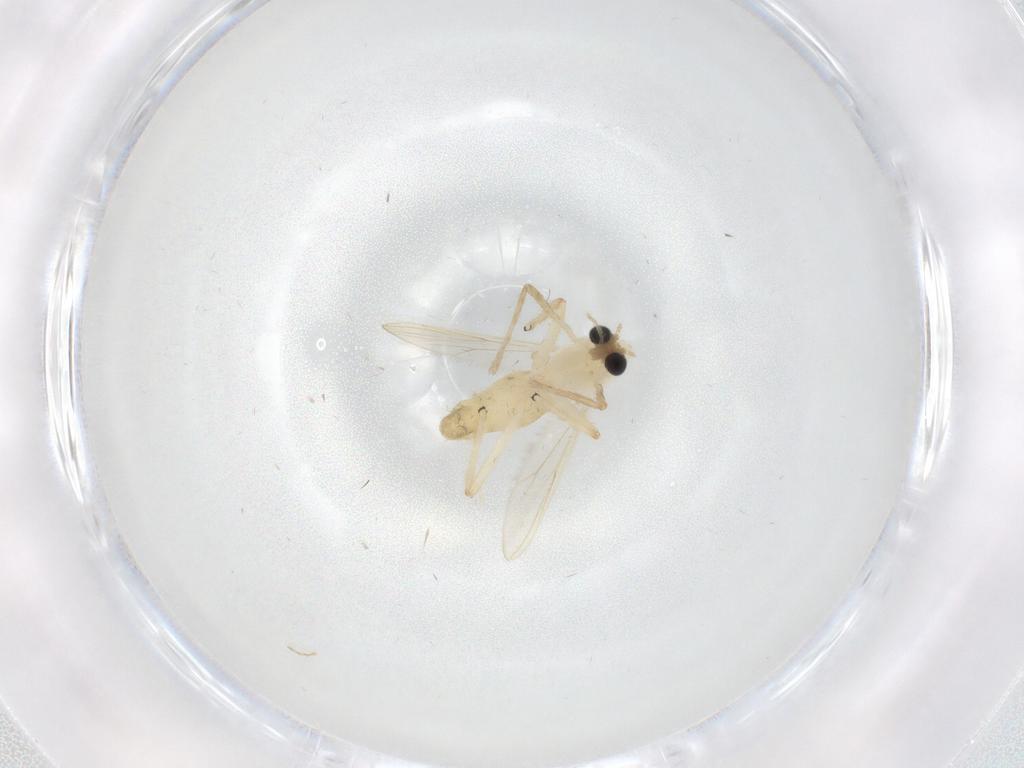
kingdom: Animalia
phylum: Arthropoda
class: Insecta
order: Diptera
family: Chironomidae
